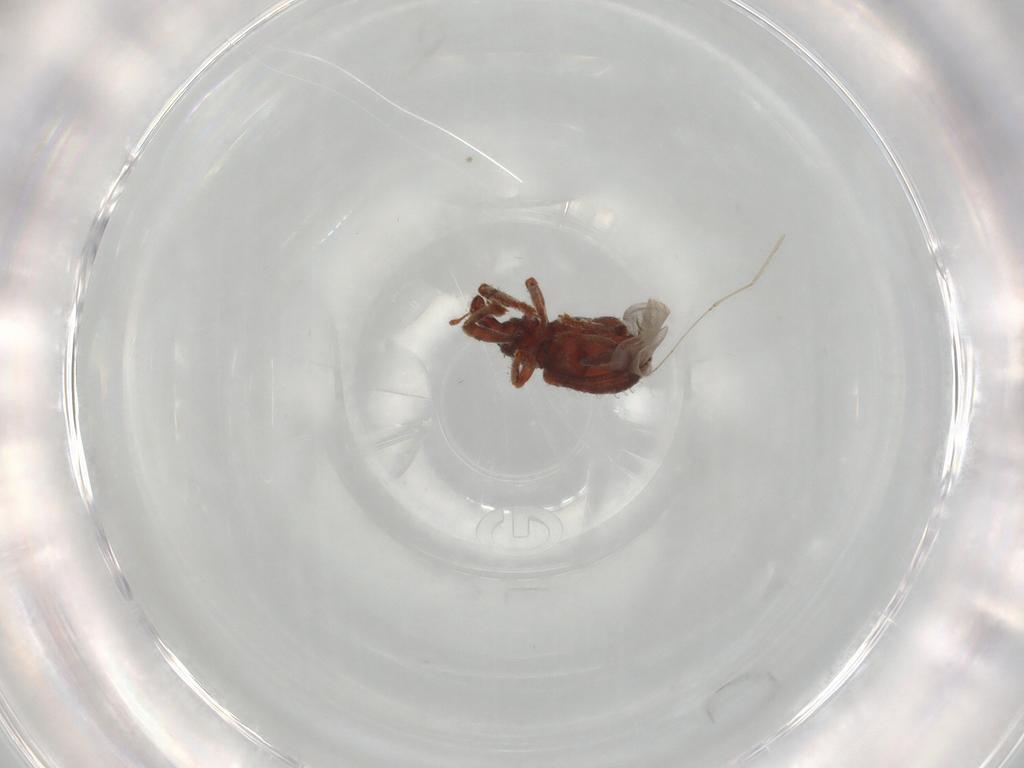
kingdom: Animalia
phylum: Arthropoda
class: Insecta
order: Coleoptera
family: Curculionidae
